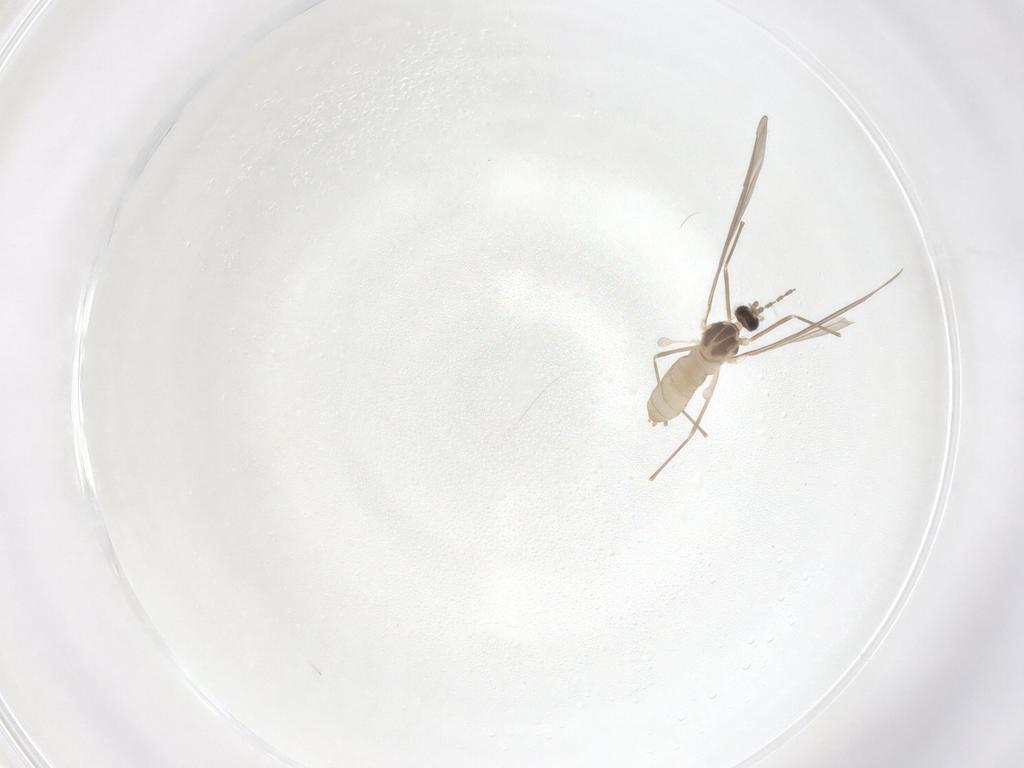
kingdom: Animalia
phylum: Arthropoda
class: Insecta
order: Diptera
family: Cecidomyiidae
